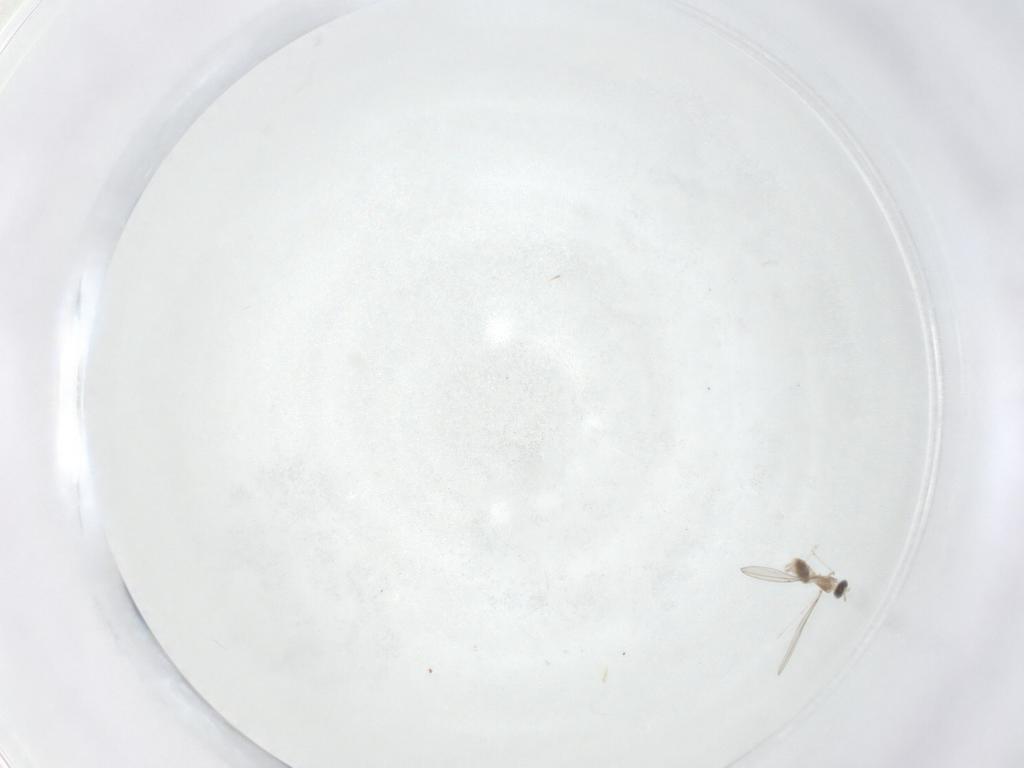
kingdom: Animalia
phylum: Arthropoda
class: Insecta
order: Diptera
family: Cecidomyiidae
